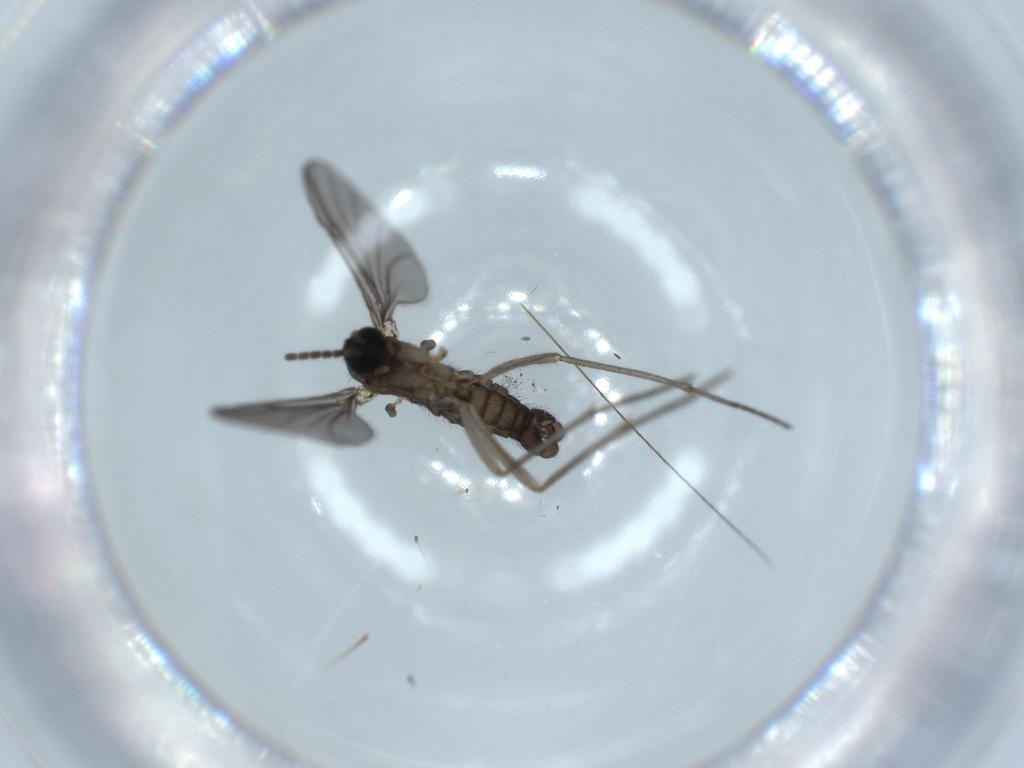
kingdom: Animalia
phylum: Arthropoda
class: Insecta
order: Diptera
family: Sciaridae
